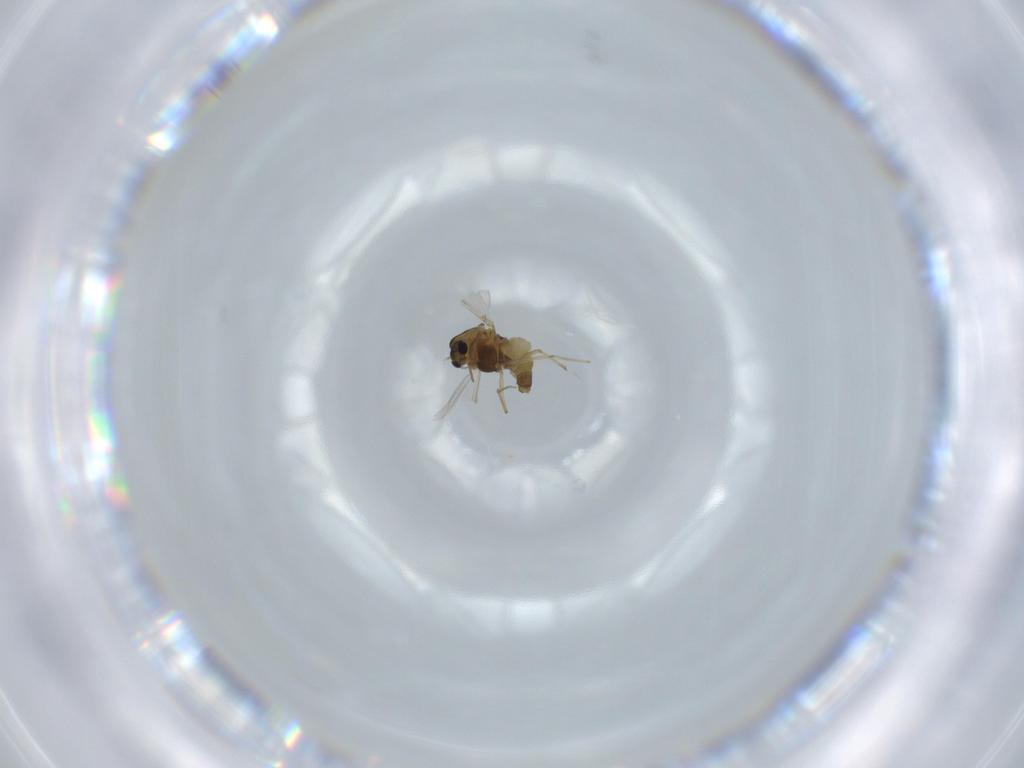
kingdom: Animalia
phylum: Arthropoda
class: Insecta
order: Diptera
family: Chironomidae
